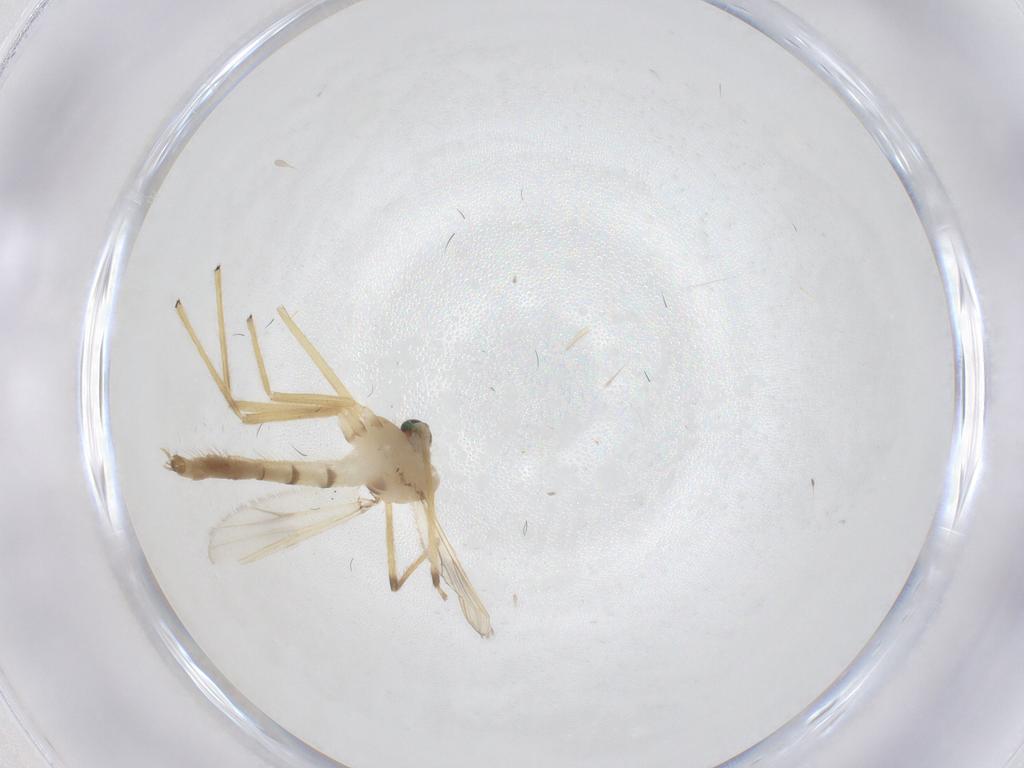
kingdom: Animalia
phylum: Arthropoda
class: Insecta
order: Diptera
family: Chironomidae
